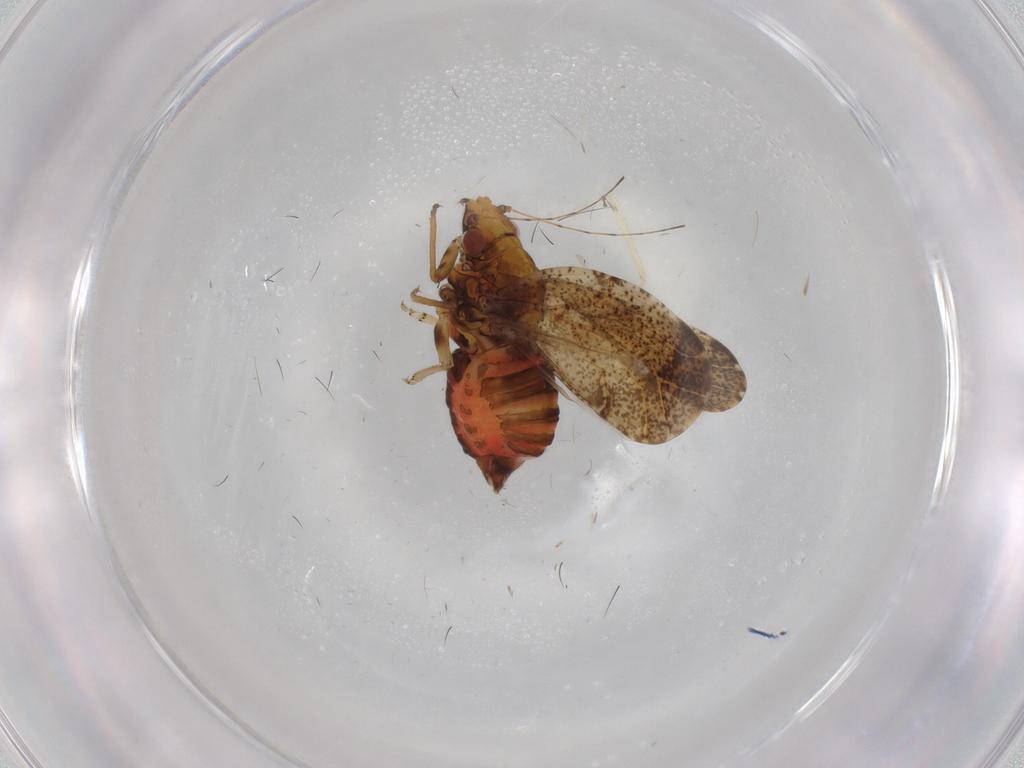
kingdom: Animalia
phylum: Arthropoda
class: Insecta
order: Hemiptera
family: Psyllidae
